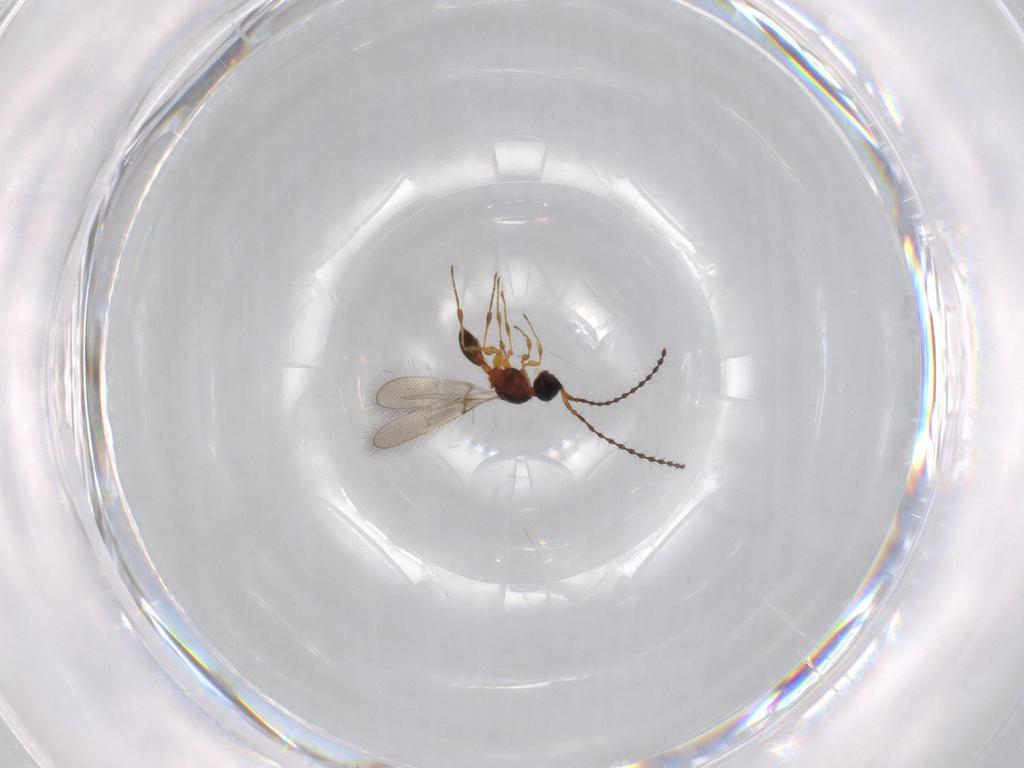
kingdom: Animalia
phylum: Arthropoda
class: Insecta
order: Hymenoptera
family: Diapriidae
